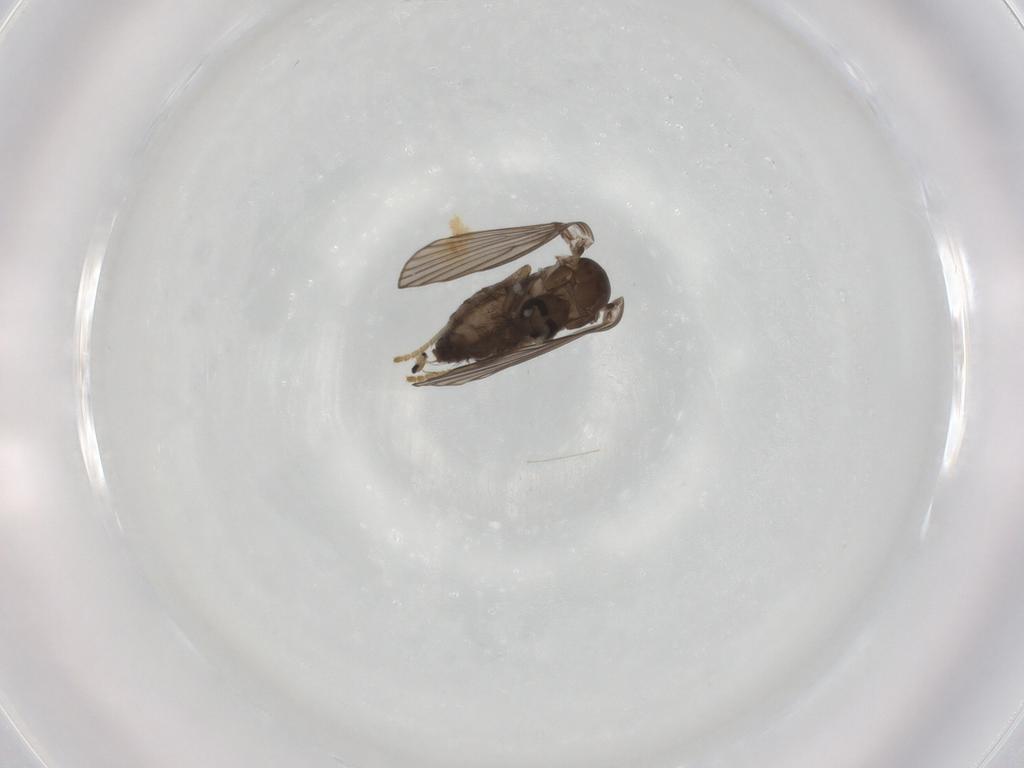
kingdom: Animalia
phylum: Arthropoda
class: Insecta
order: Diptera
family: Psychodidae
